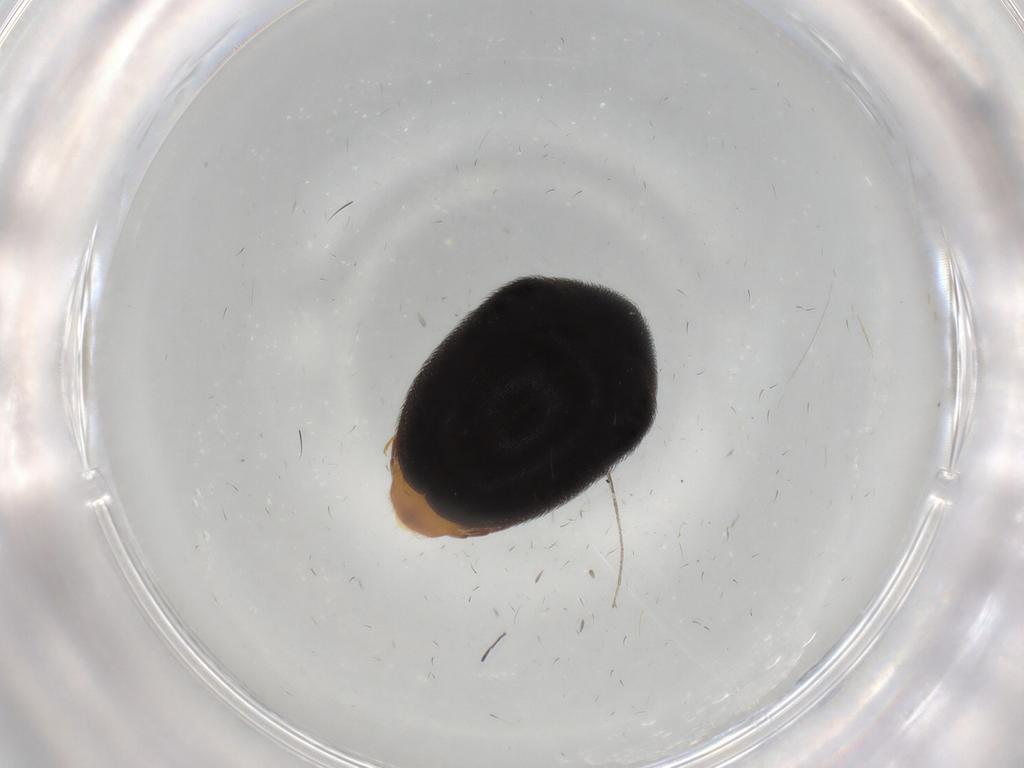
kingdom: Animalia
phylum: Arthropoda
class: Insecta
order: Coleoptera
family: Dermestidae
